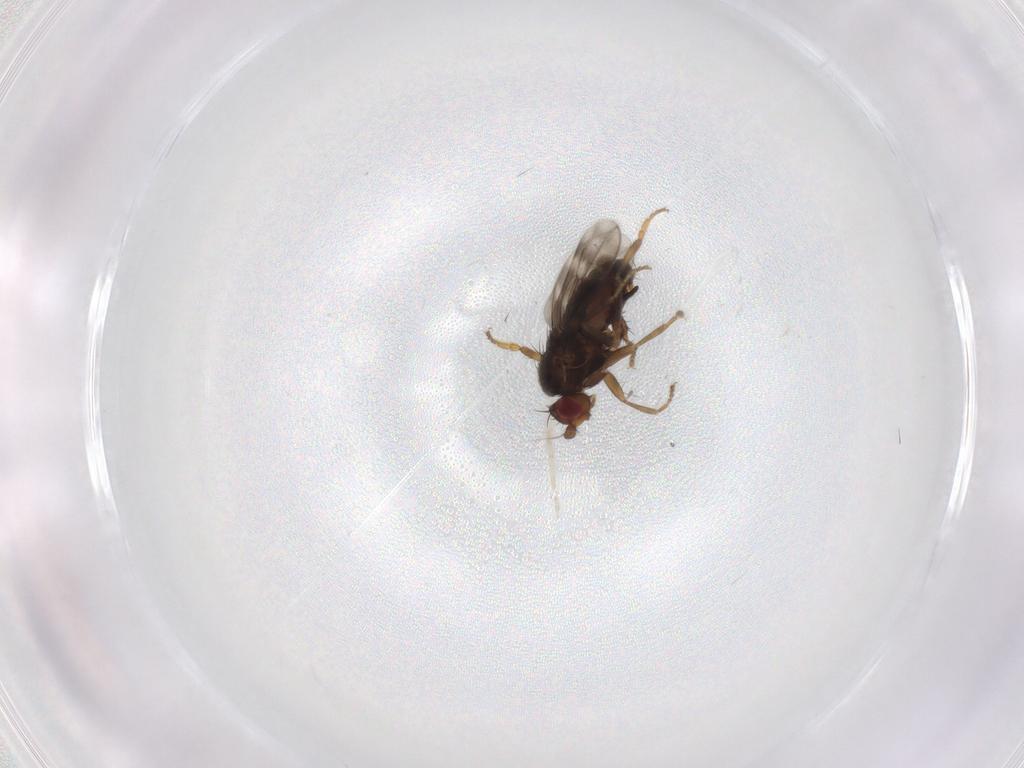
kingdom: Animalia
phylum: Arthropoda
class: Insecta
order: Diptera
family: Sphaeroceridae
